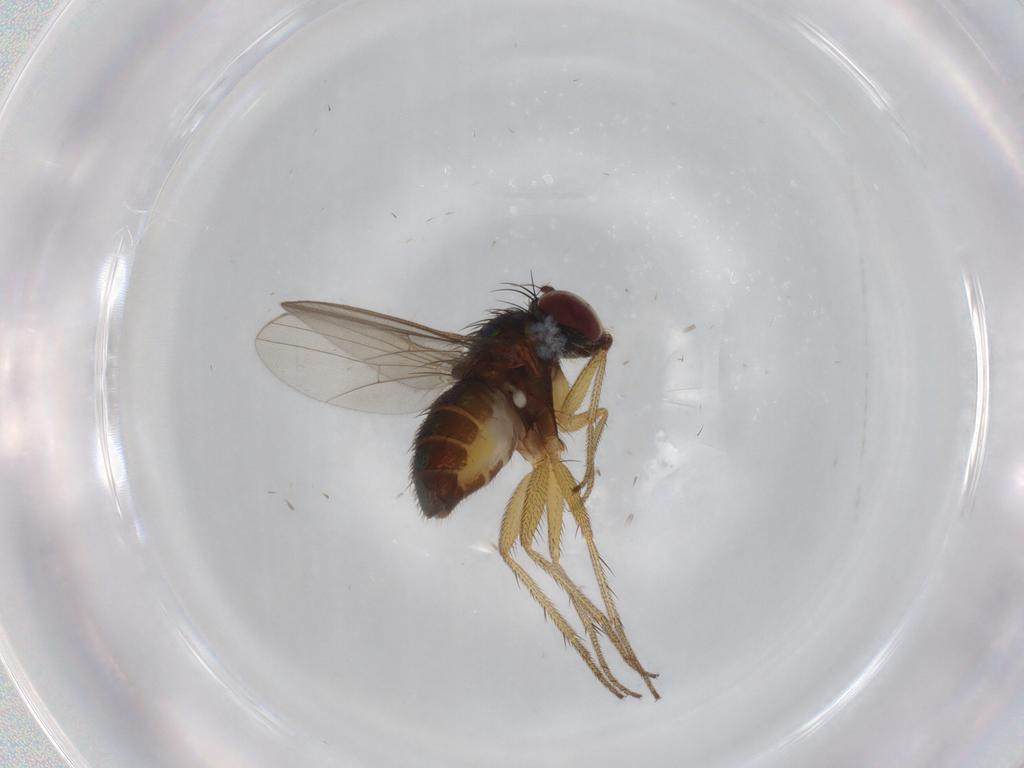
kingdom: Animalia
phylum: Arthropoda
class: Insecta
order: Diptera
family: Dolichopodidae
